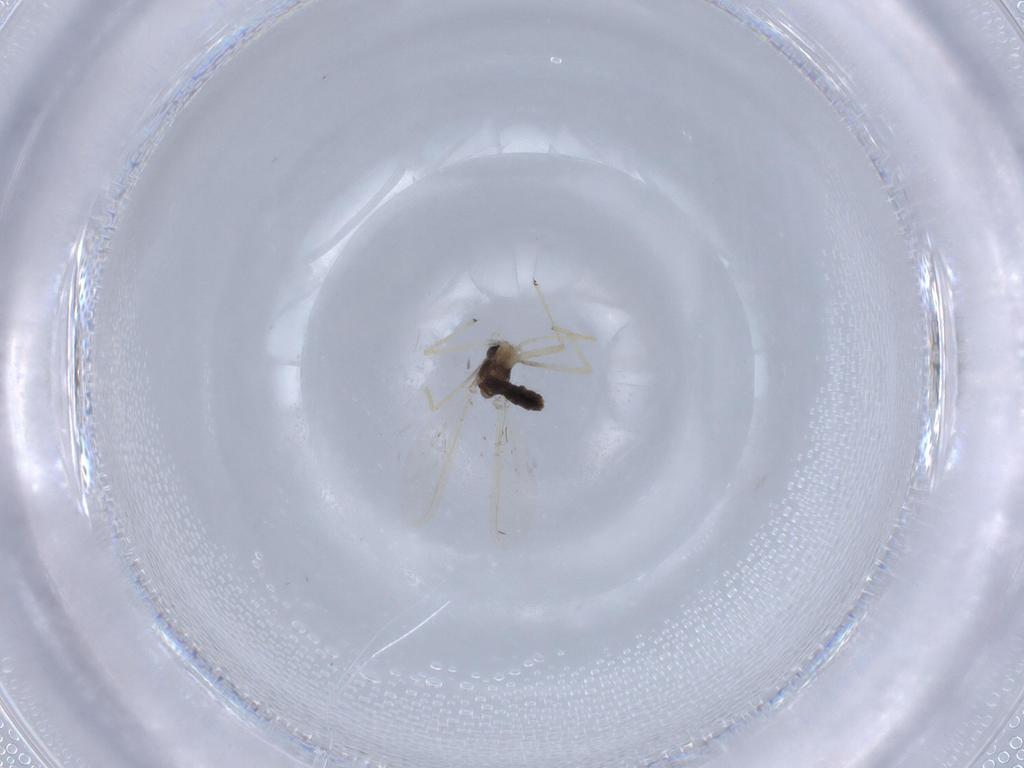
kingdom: Animalia
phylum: Arthropoda
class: Insecta
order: Diptera
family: Chironomidae
